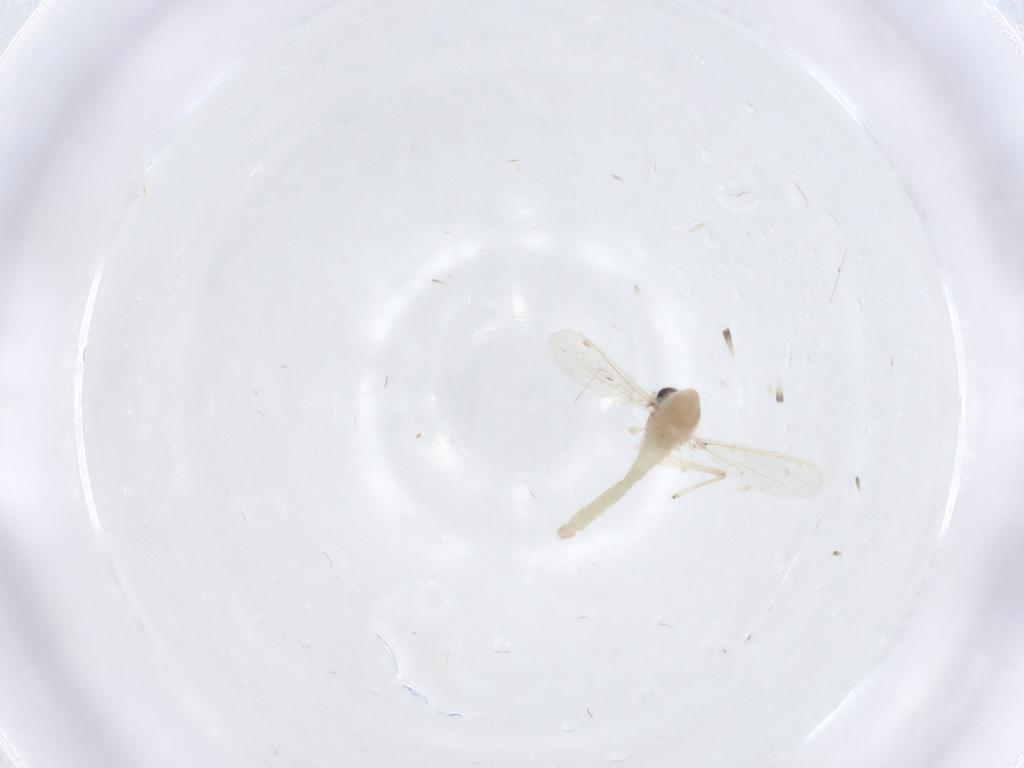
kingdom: Animalia
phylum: Arthropoda
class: Insecta
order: Diptera
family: Chironomidae
